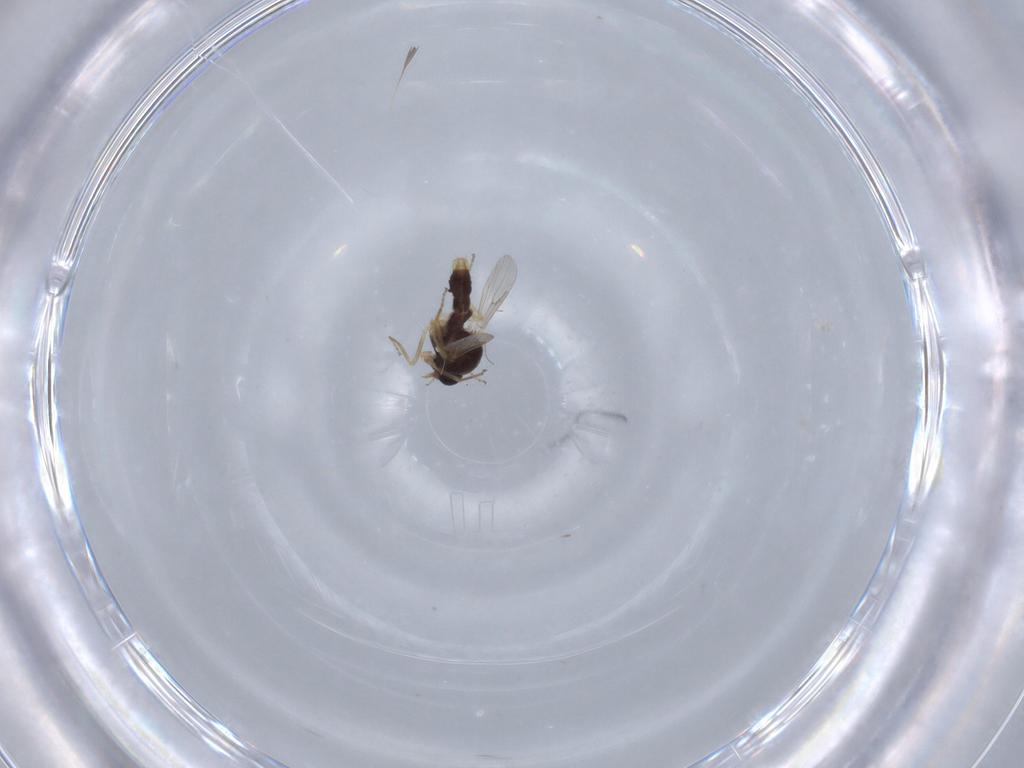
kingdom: Animalia
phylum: Arthropoda
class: Insecta
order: Diptera
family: Ceratopogonidae
